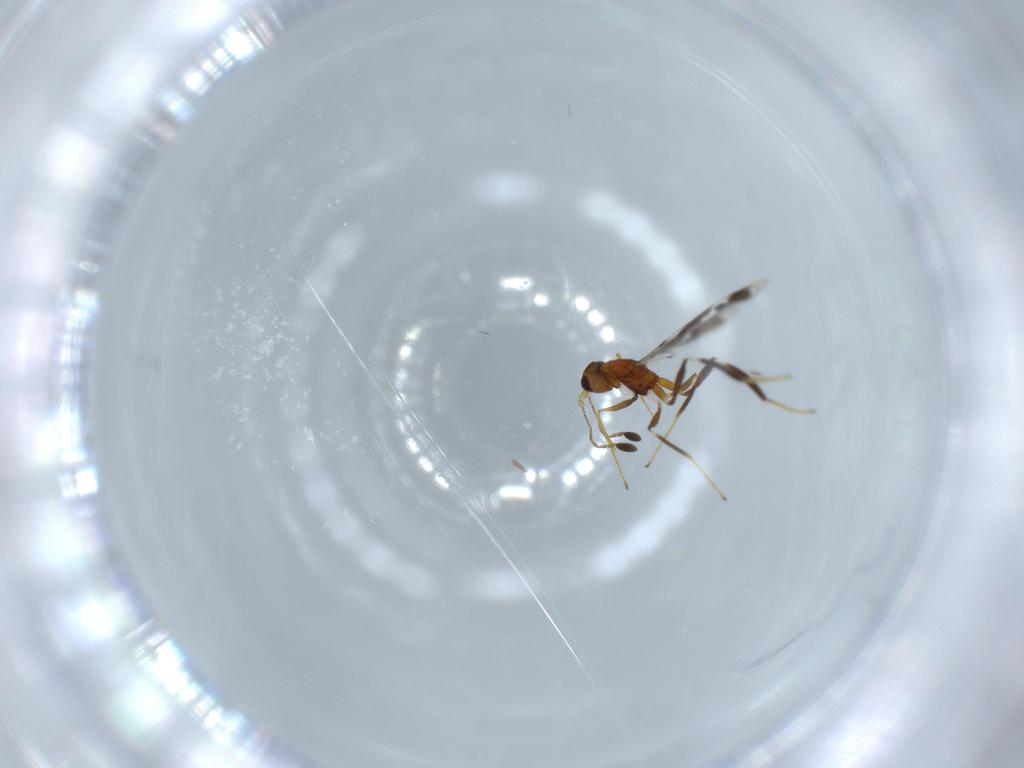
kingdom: Animalia
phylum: Arthropoda
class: Insecta
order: Hymenoptera
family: Mymaridae
